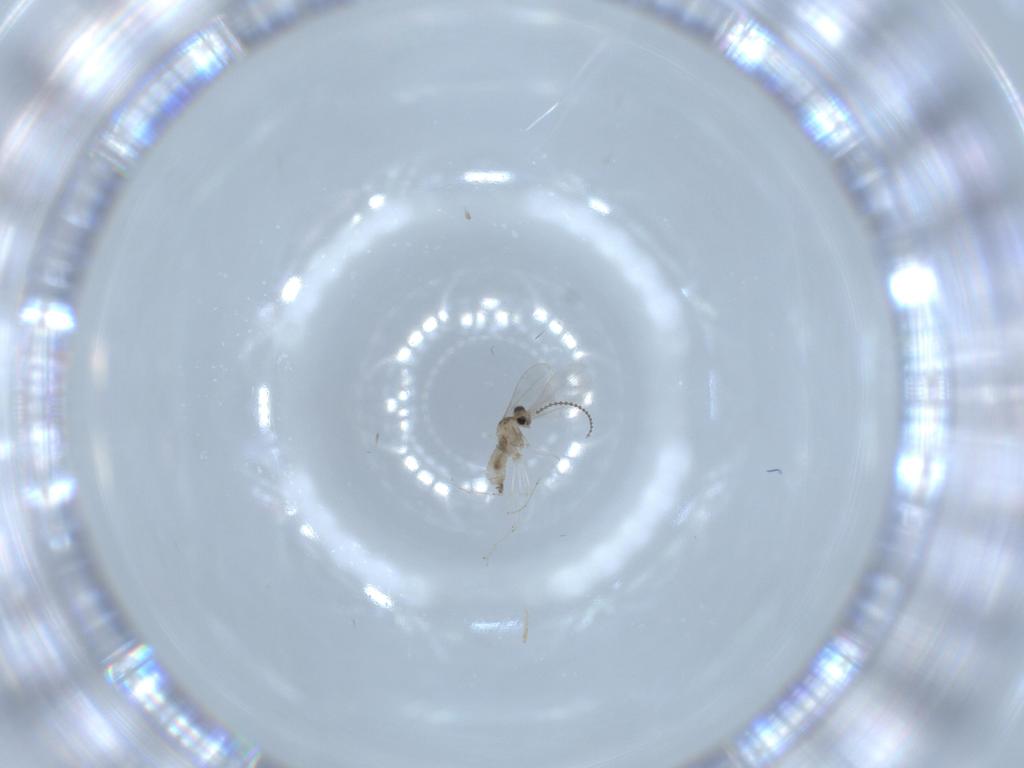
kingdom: Animalia
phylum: Arthropoda
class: Insecta
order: Diptera
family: Cecidomyiidae
